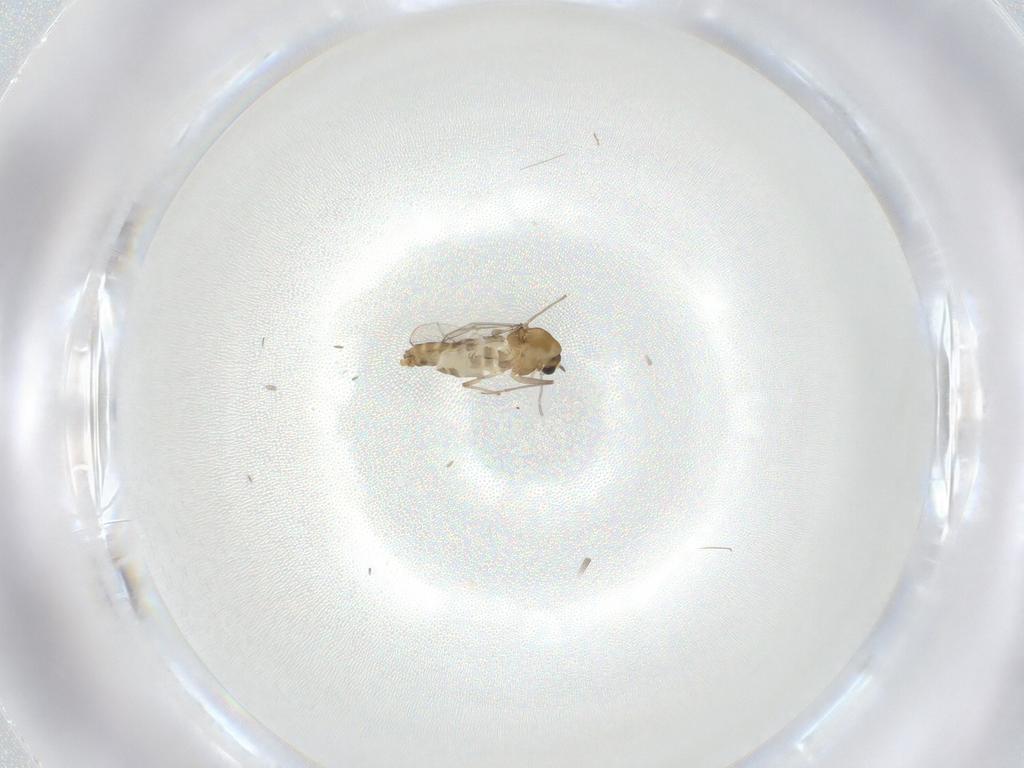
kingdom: Animalia
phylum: Arthropoda
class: Insecta
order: Diptera
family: Chironomidae
